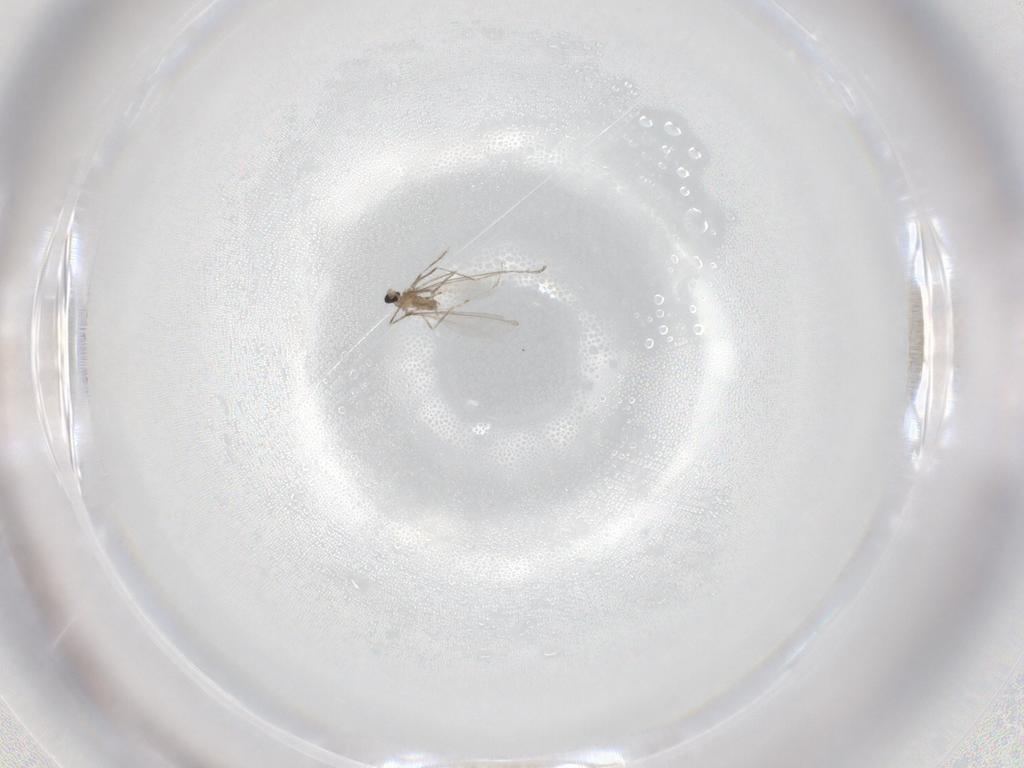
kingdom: Animalia
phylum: Arthropoda
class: Insecta
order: Diptera
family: Cecidomyiidae
